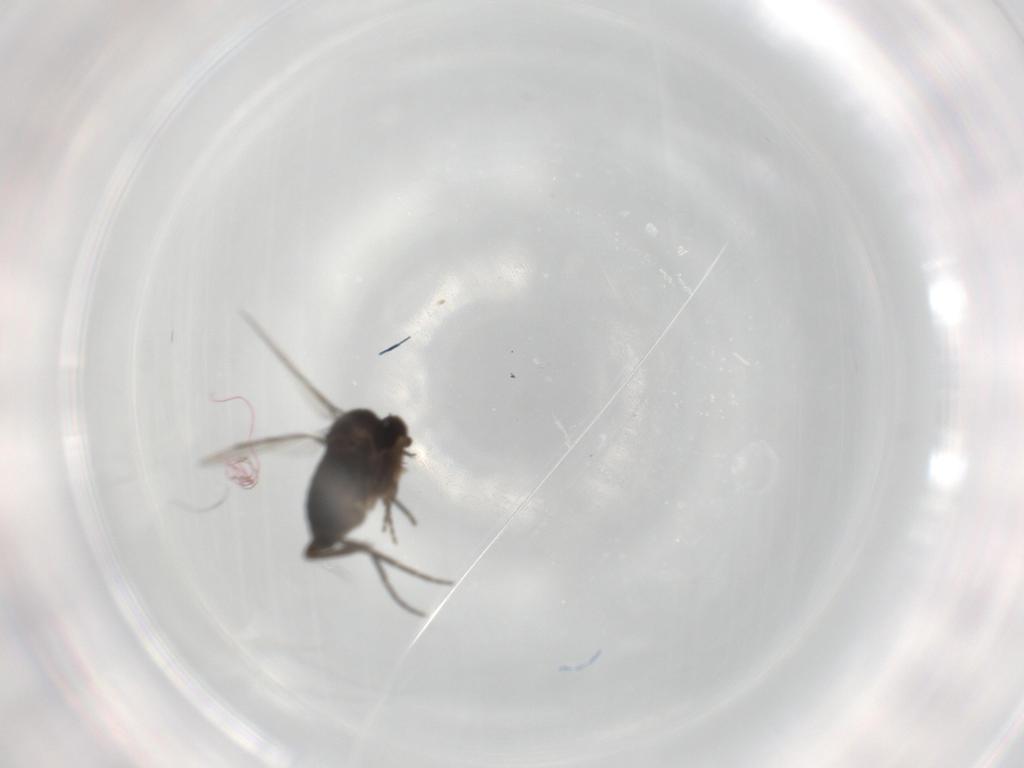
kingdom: Animalia
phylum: Arthropoda
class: Insecta
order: Diptera
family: Phoridae
